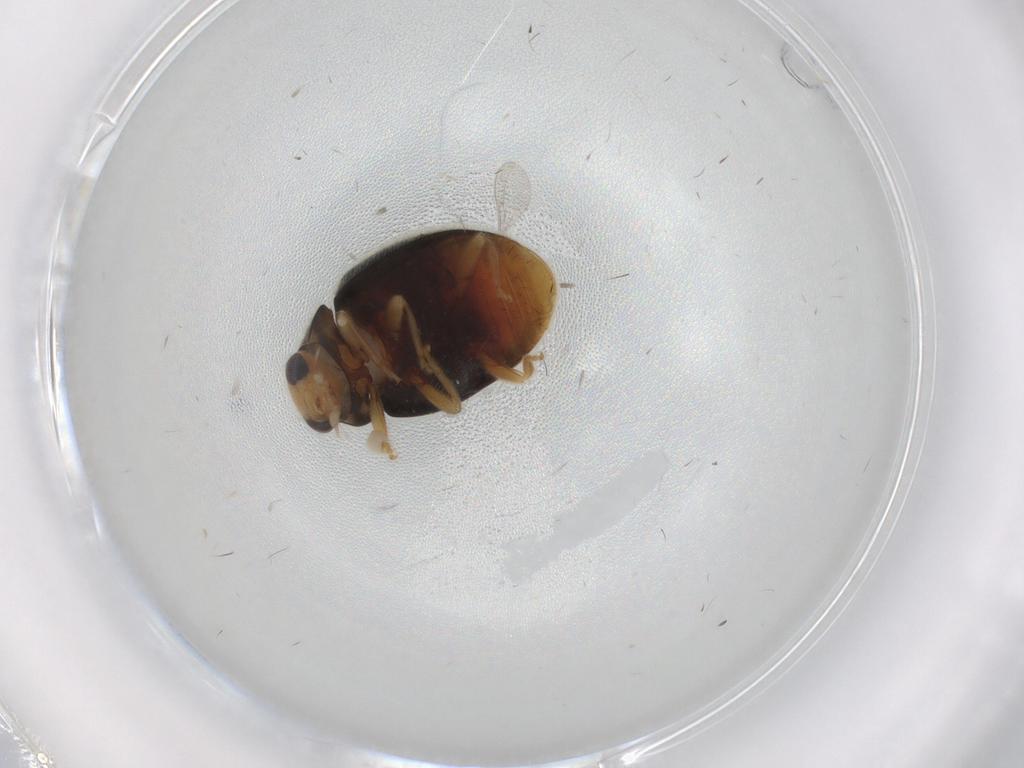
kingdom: Animalia
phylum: Arthropoda
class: Insecta
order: Coleoptera
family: Coccinellidae
